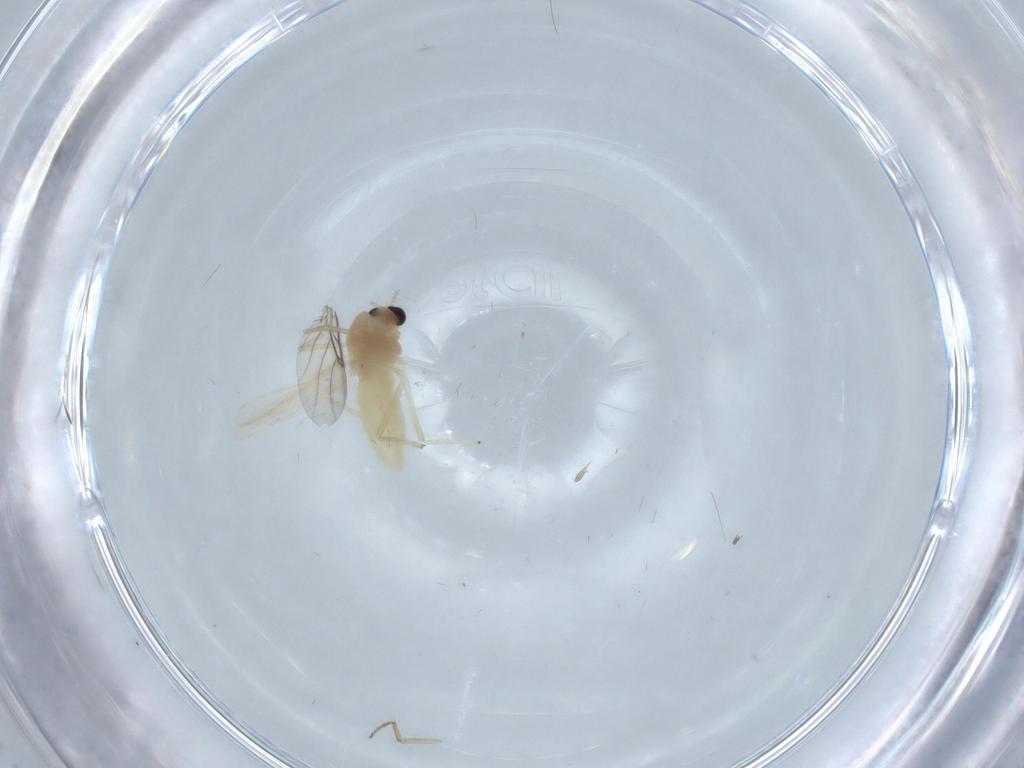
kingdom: Animalia
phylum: Arthropoda
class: Insecta
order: Diptera
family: Chironomidae
